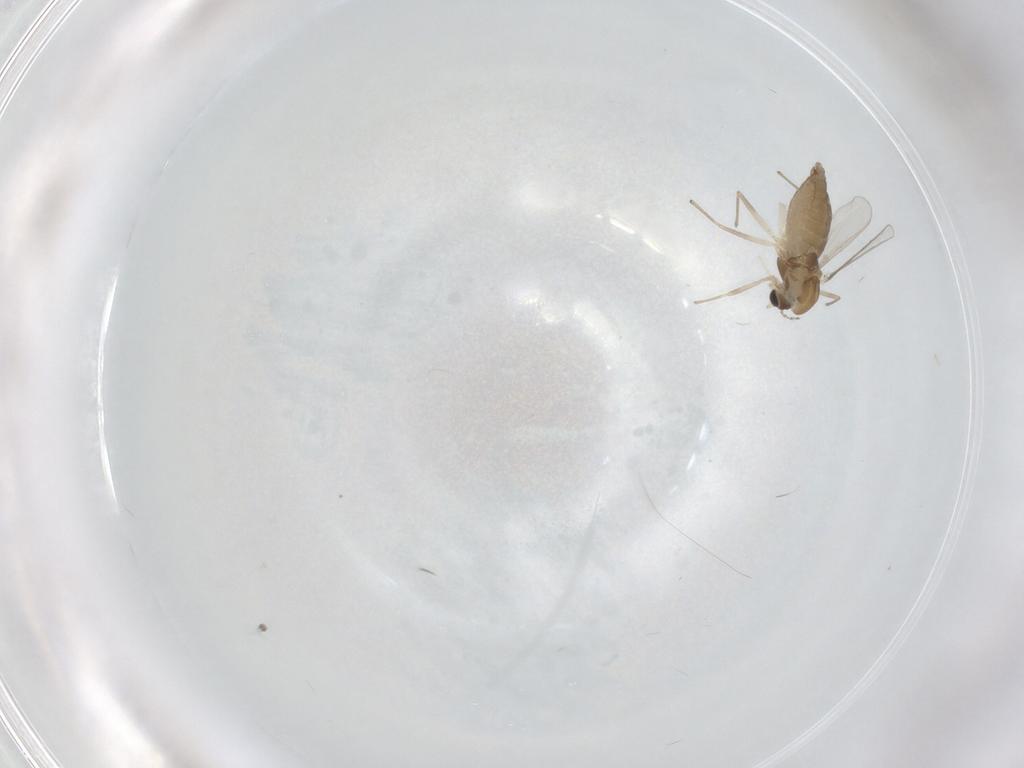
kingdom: Animalia
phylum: Arthropoda
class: Insecta
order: Diptera
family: Chironomidae
